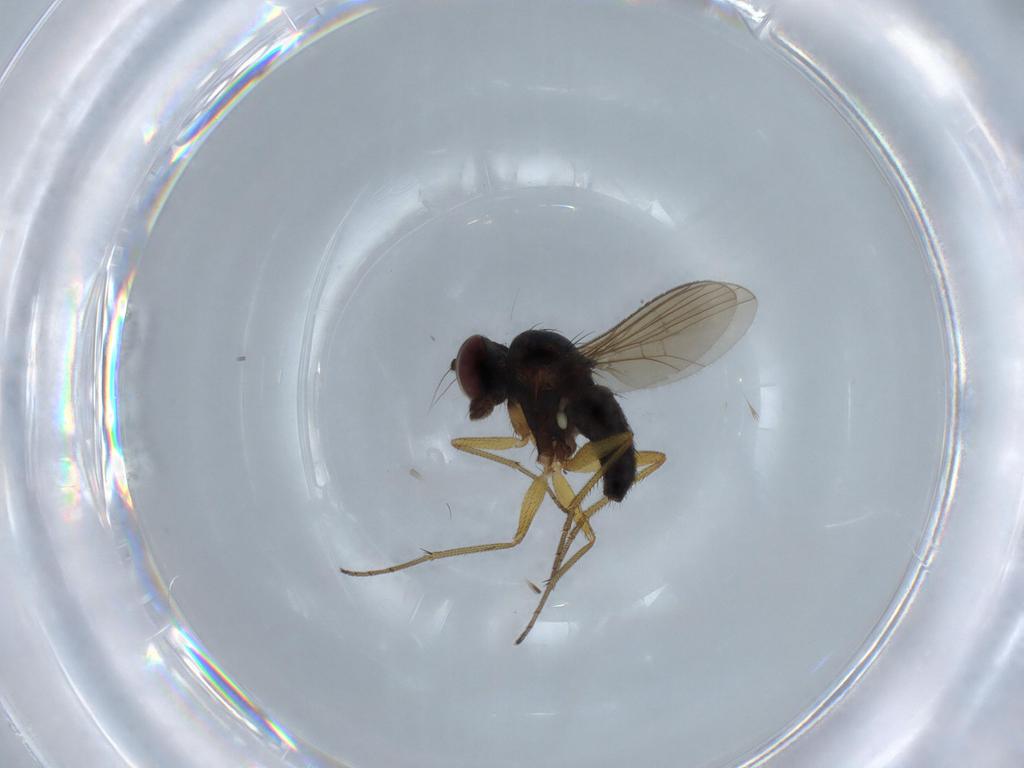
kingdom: Animalia
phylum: Arthropoda
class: Insecta
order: Diptera
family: Dolichopodidae
